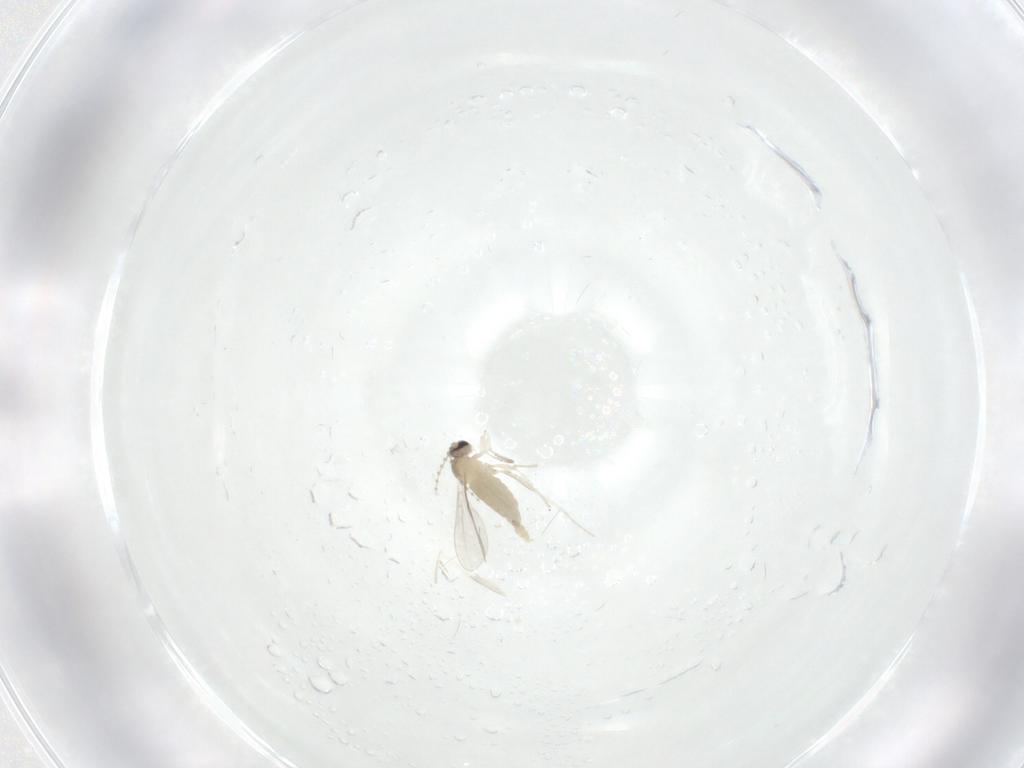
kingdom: Animalia
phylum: Arthropoda
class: Insecta
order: Diptera
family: Cecidomyiidae
